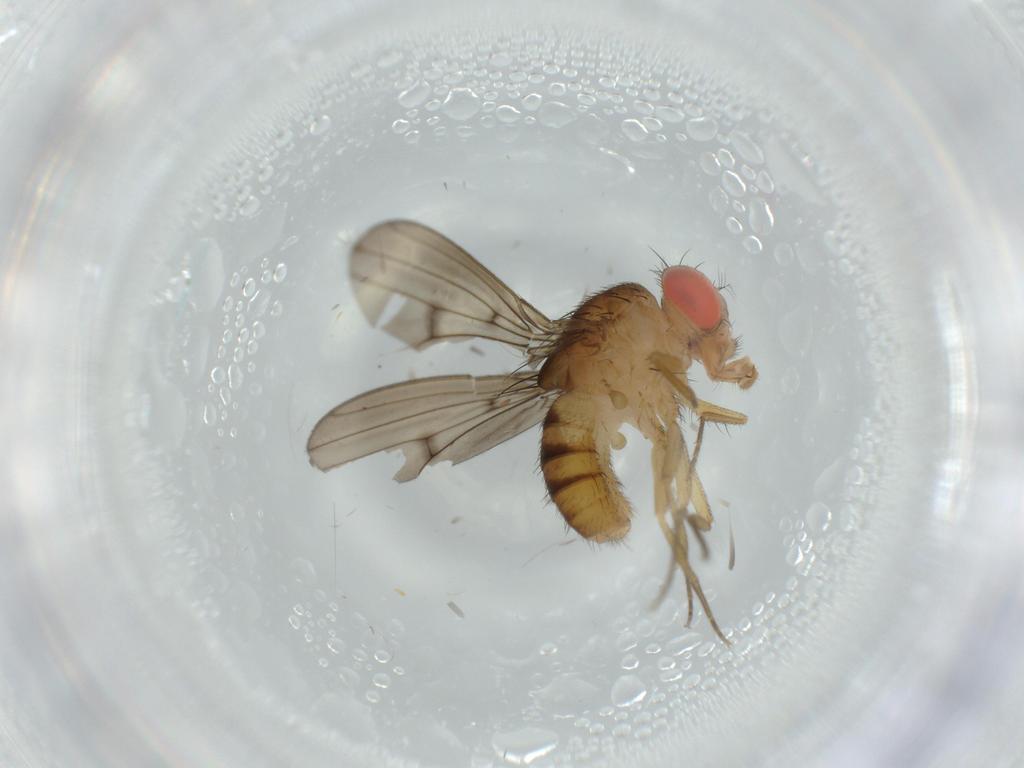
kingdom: Animalia
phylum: Arthropoda
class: Insecta
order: Diptera
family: Drosophilidae
